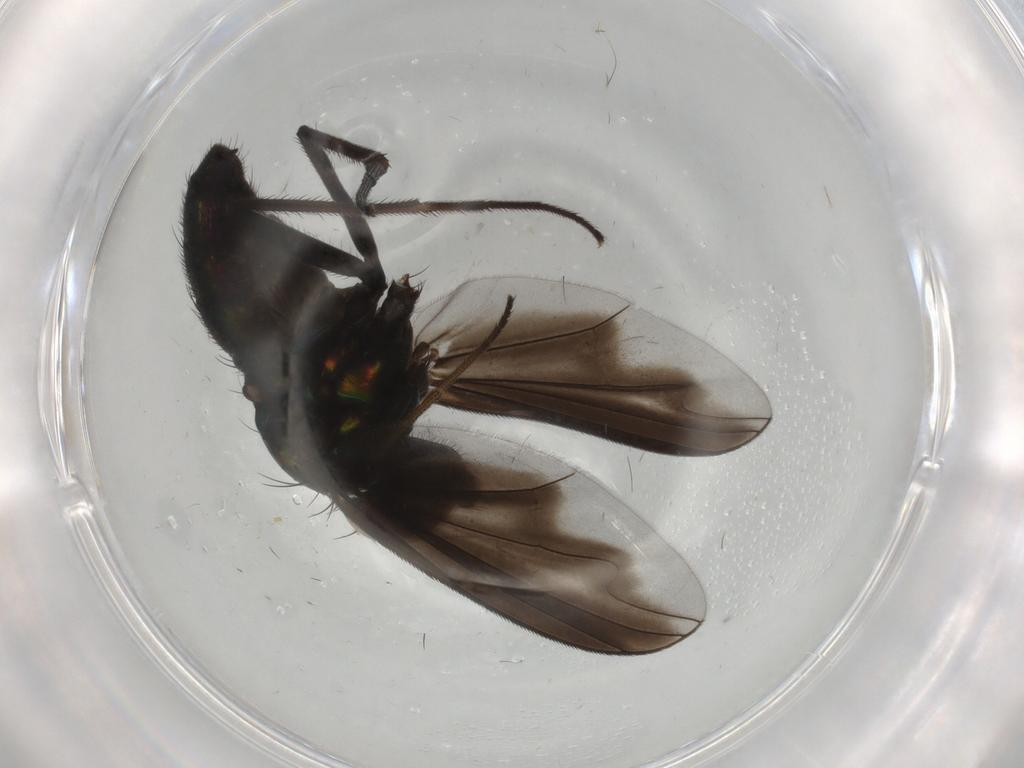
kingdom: Animalia
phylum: Arthropoda
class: Insecta
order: Diptera
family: Dolichopodidae
